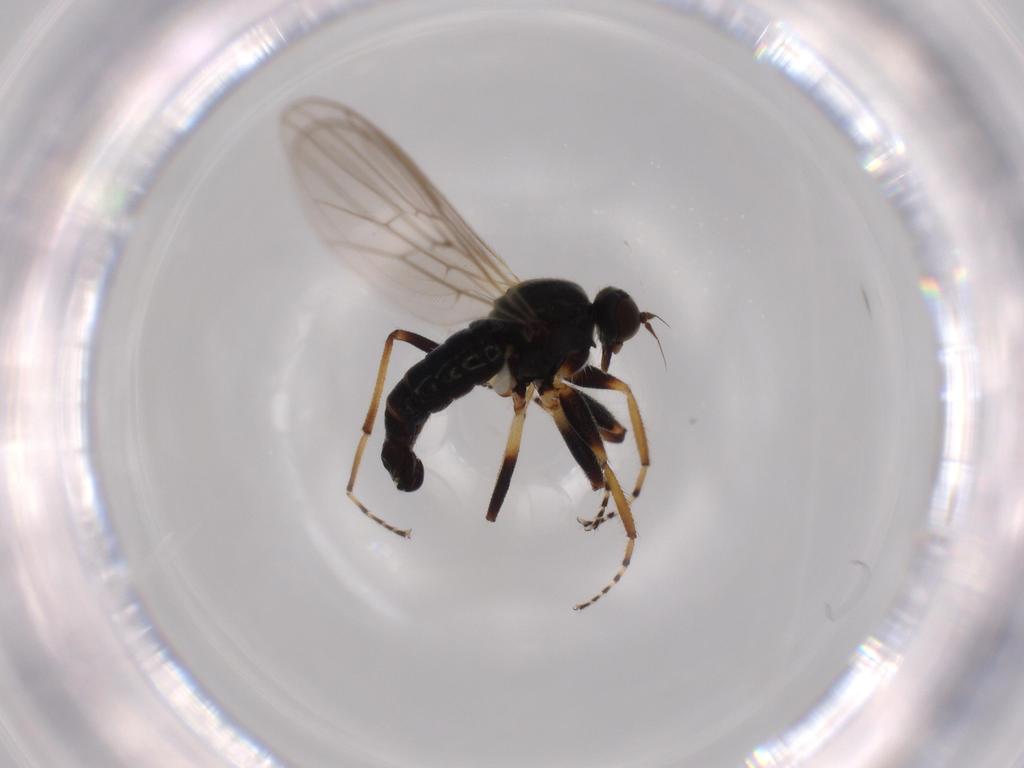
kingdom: Animalia
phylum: Arthropoda
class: Insecta
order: Diptera
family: Hybotidae
